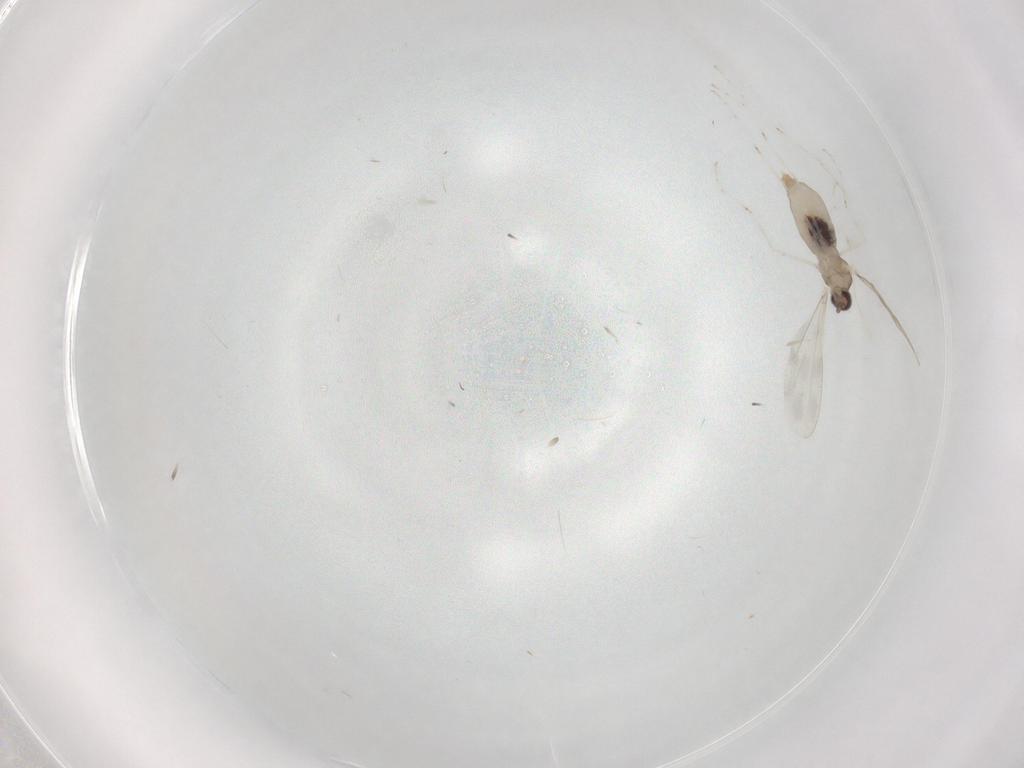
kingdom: Animalia
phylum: Arthropoda
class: Insecta
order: Diptera
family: Cecidomyiidae
